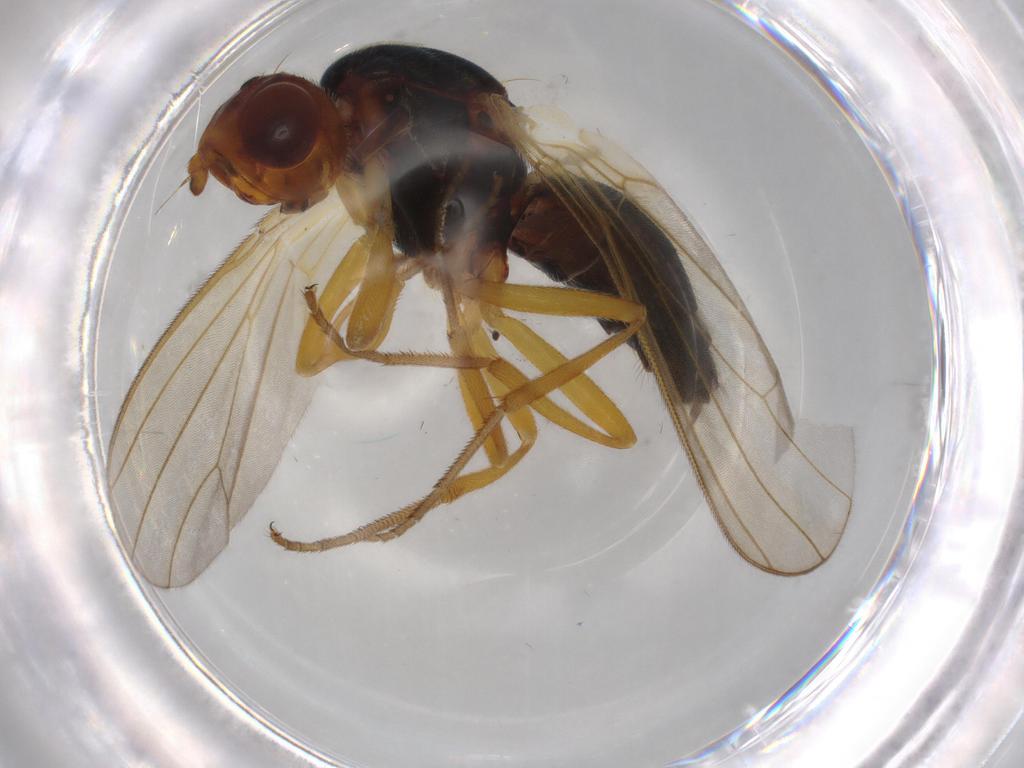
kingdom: Animalia
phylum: Arthropoda
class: Insecta
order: Diptera
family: Dolichopodidae
